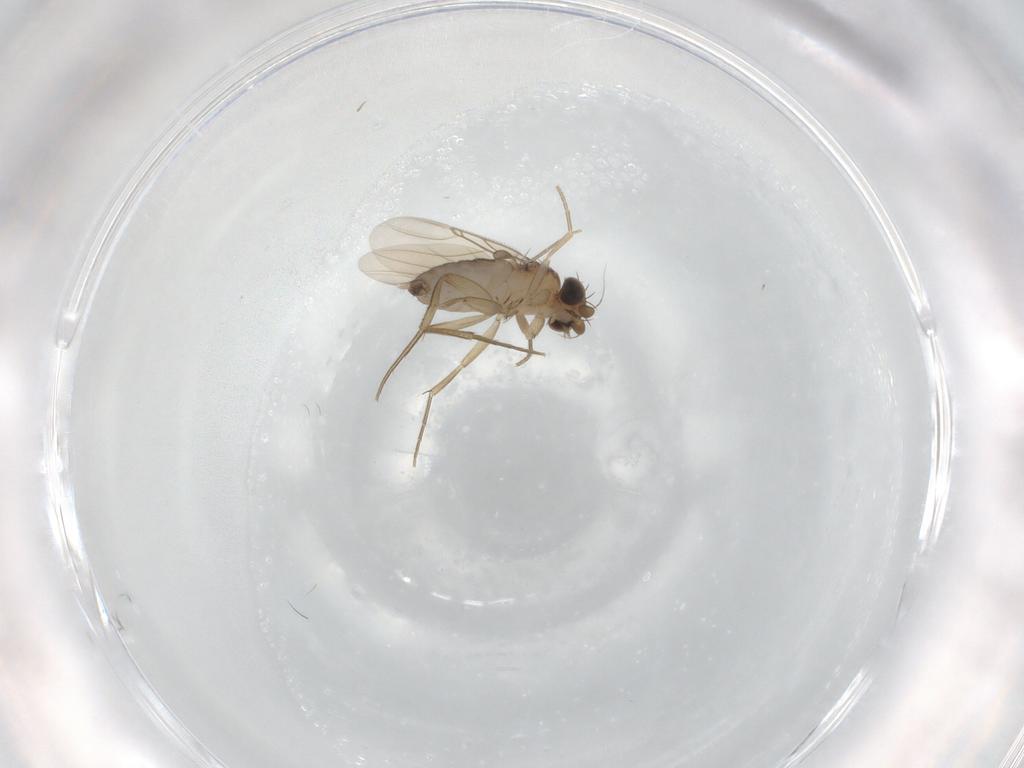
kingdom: Animalia
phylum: Arthropoda
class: Insecta
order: Diptera
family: Phoridae
